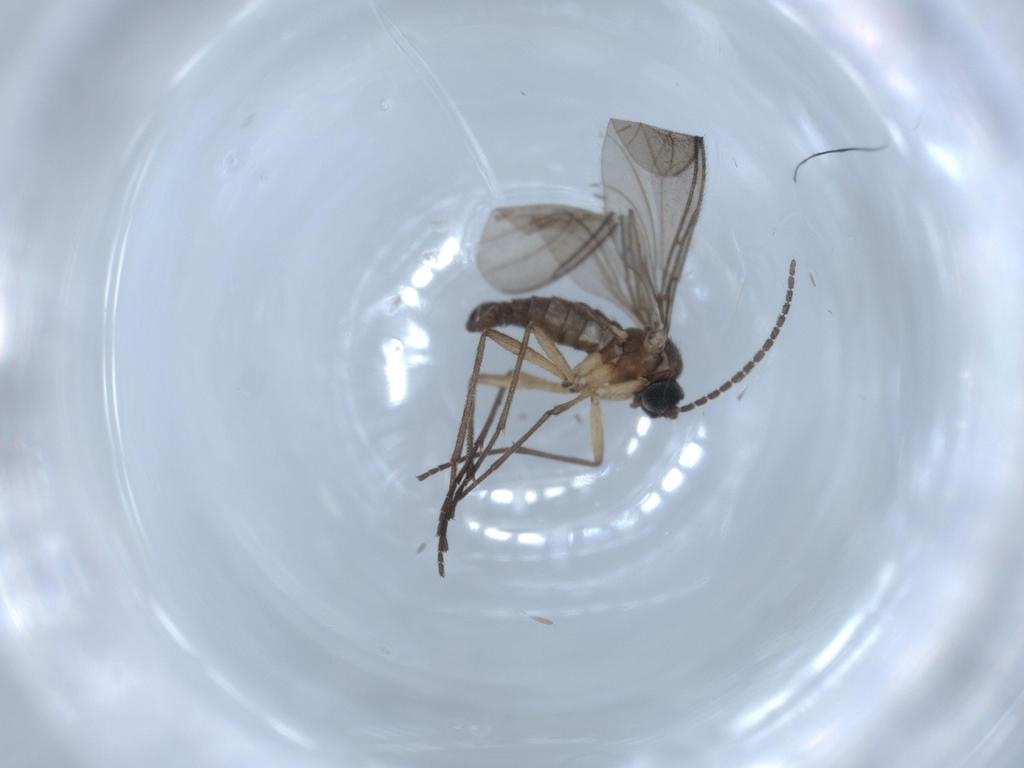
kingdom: Animalia
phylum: Arthropoda
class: Insecta
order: Diptera
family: Sciaridae
